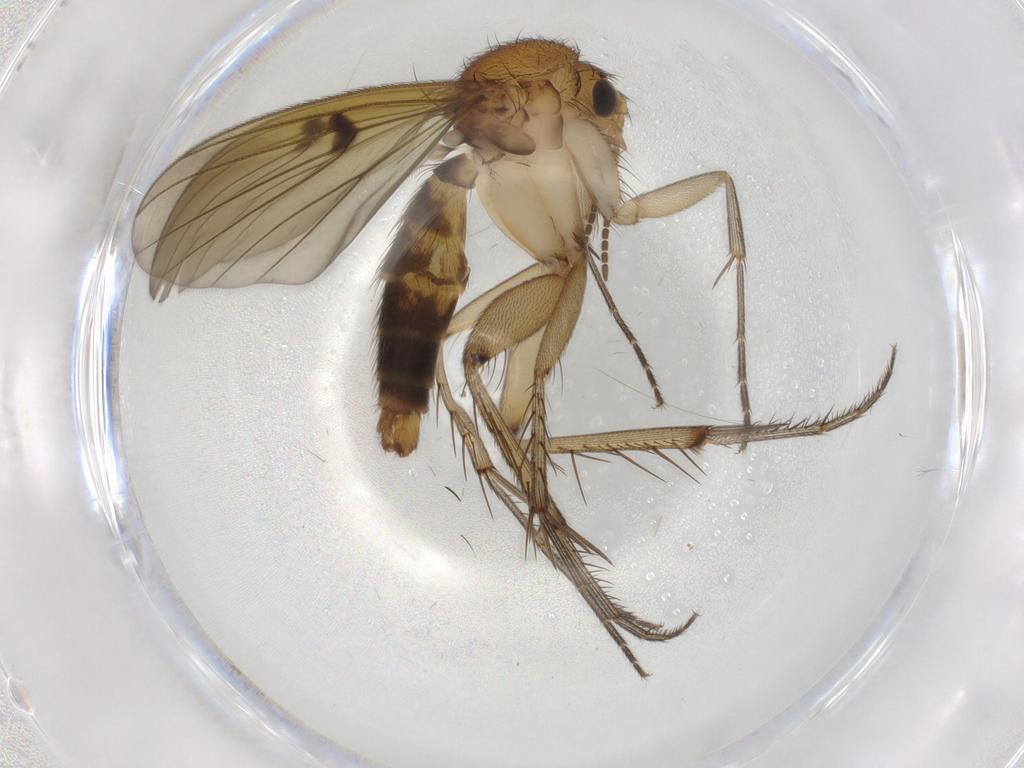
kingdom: Animalia
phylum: Arthropoda
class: Insecta
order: Diptera
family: Sciaridae
